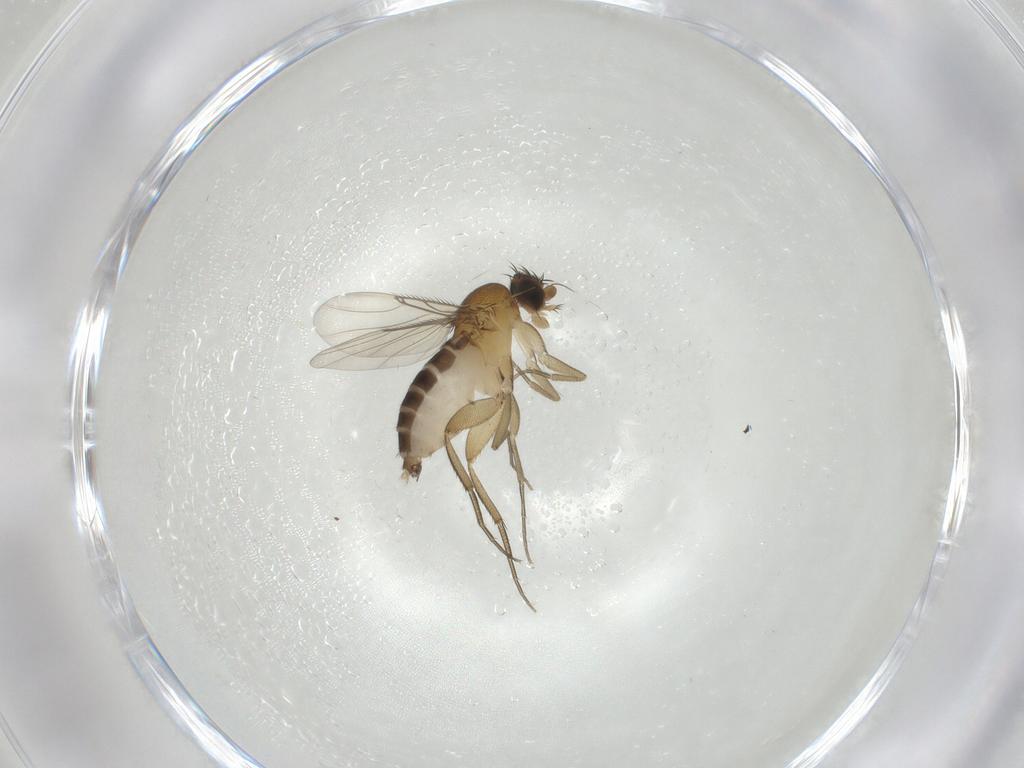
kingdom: Animalia
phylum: Arthropoda
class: Insecta
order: Diptera
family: Phoridae
